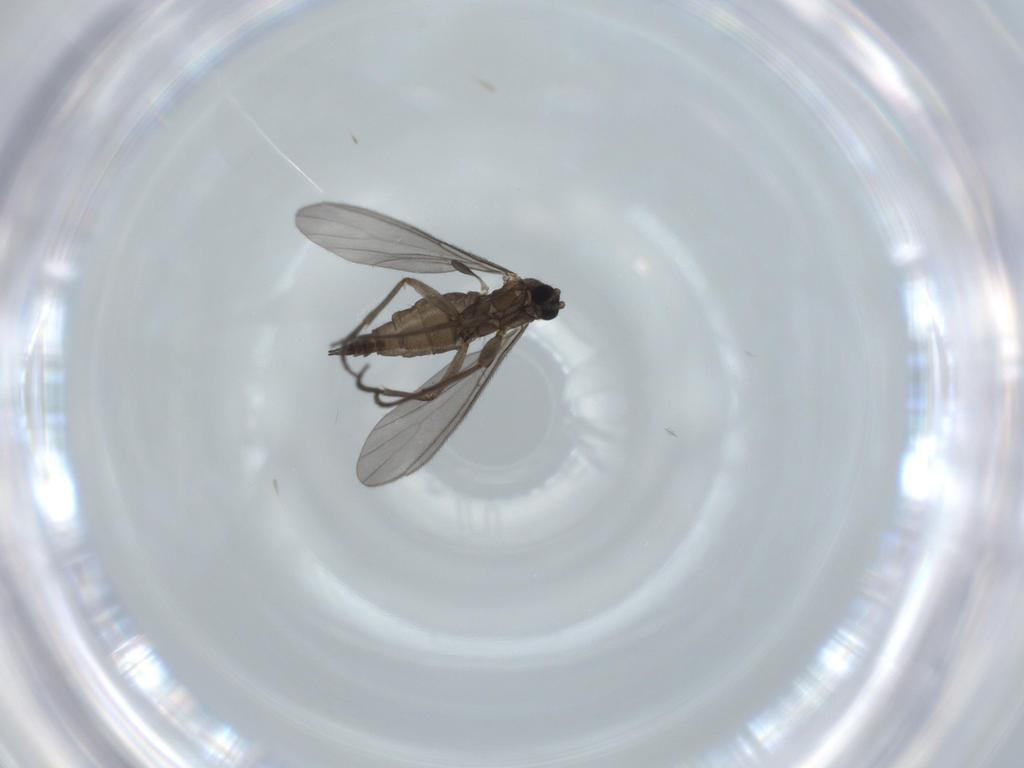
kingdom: Animalia
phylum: Arthropoda
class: Insecta
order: Diptera
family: Sciaridae
